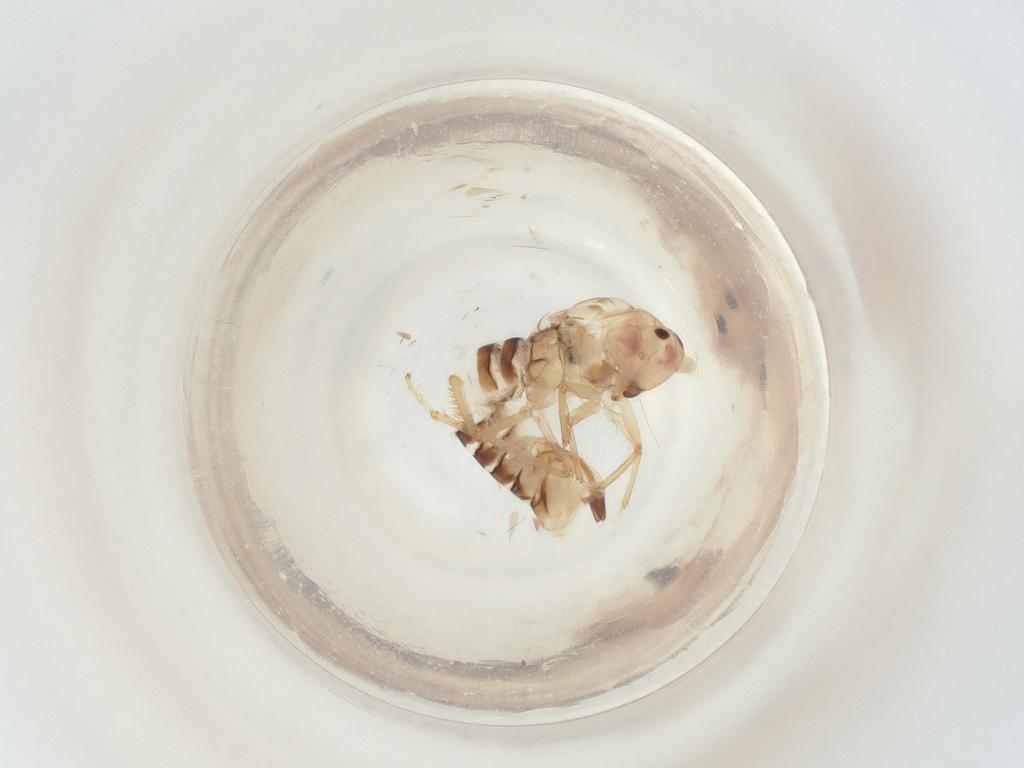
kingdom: Animalia
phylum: Arthropoda
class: Insecta
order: Hemiptera
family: Cicadellidae
